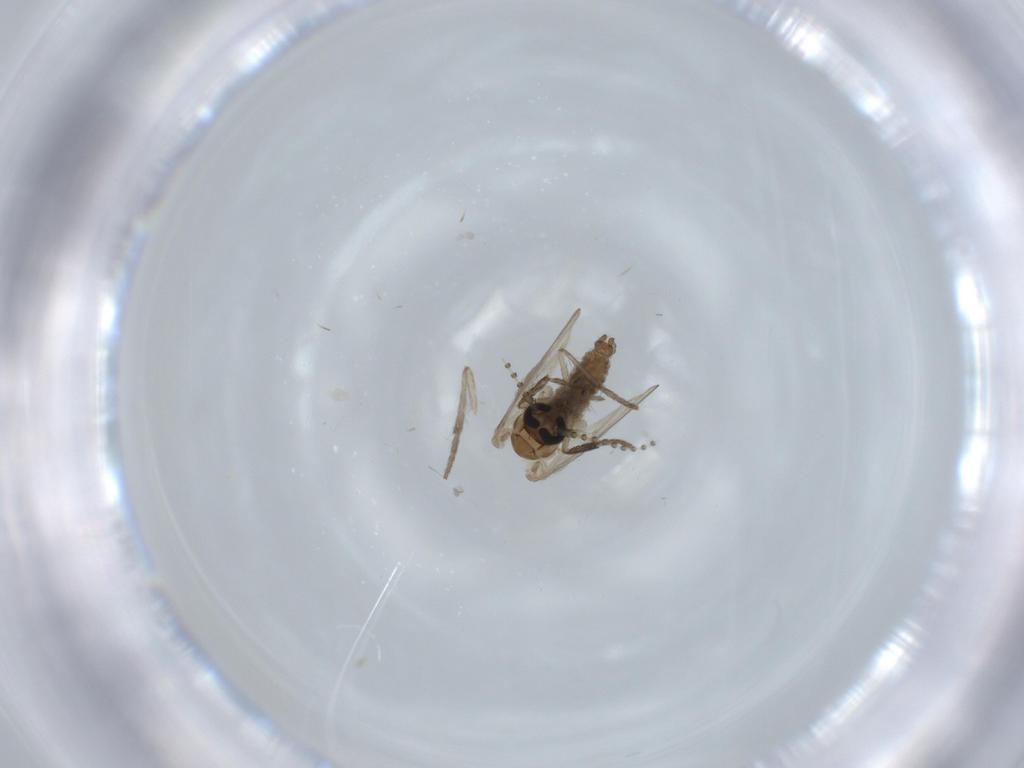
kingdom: Animalia
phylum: Arthropoda
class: Insecta
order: Diptera
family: Psychodidae
